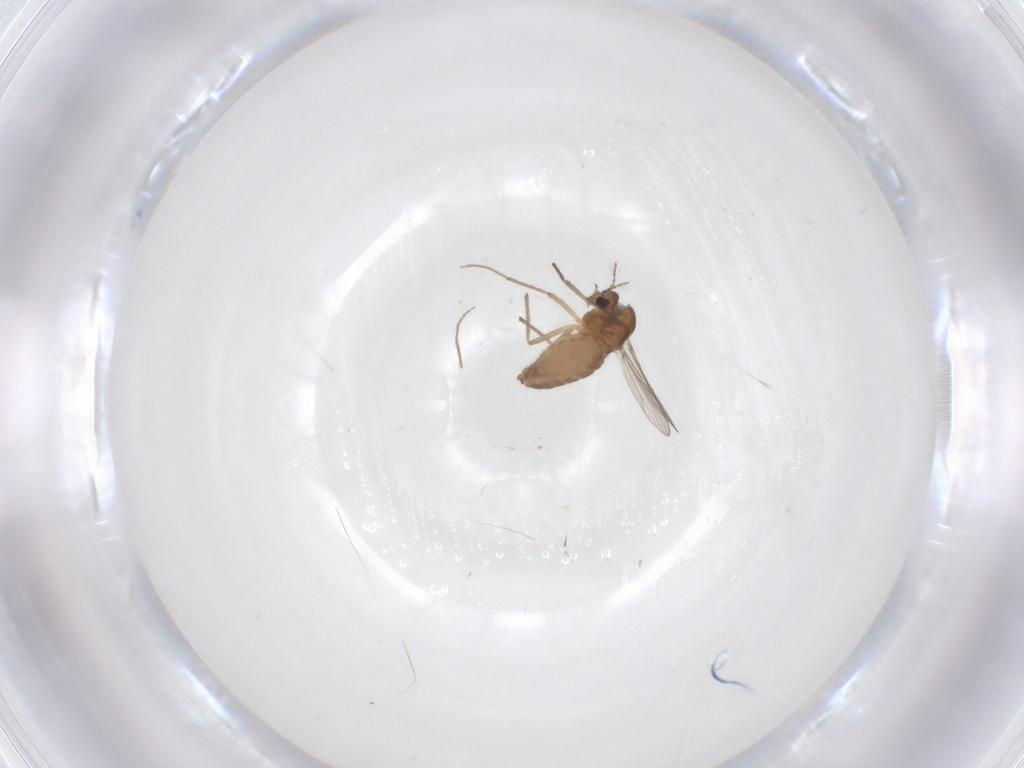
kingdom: Animalia
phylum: Arthropoda
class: Insecta
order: Diptera
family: Chironomidae
